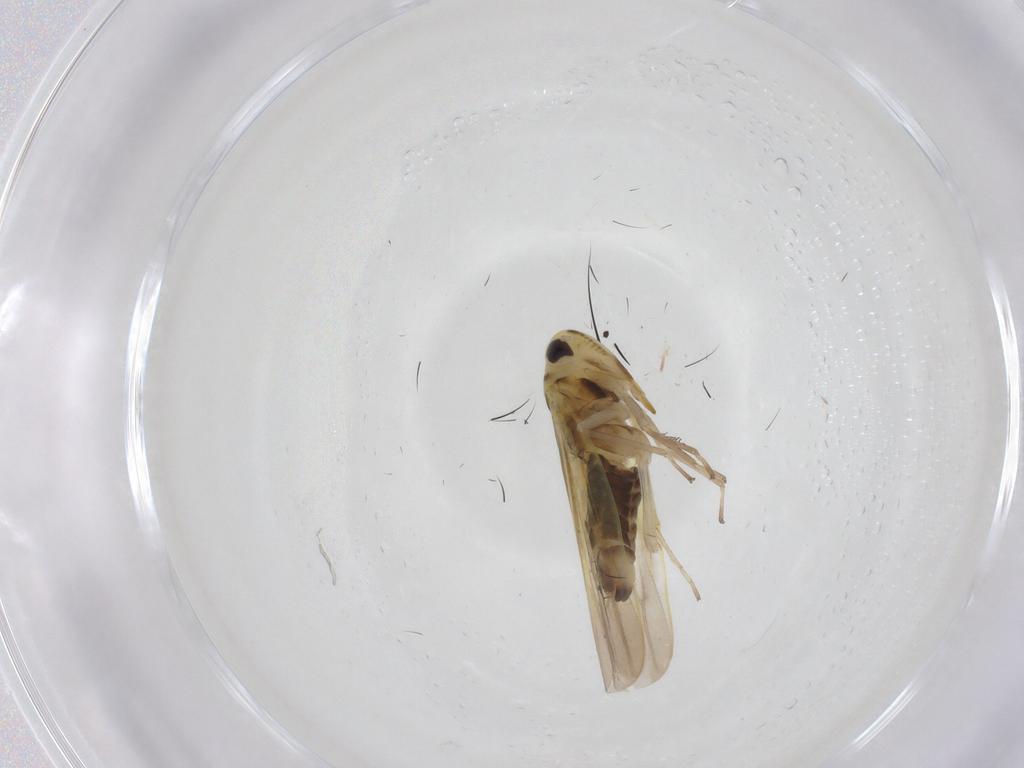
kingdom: Animalia
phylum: Arthropoda
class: Insecta
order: Hemiptera
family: Cicadellidae
